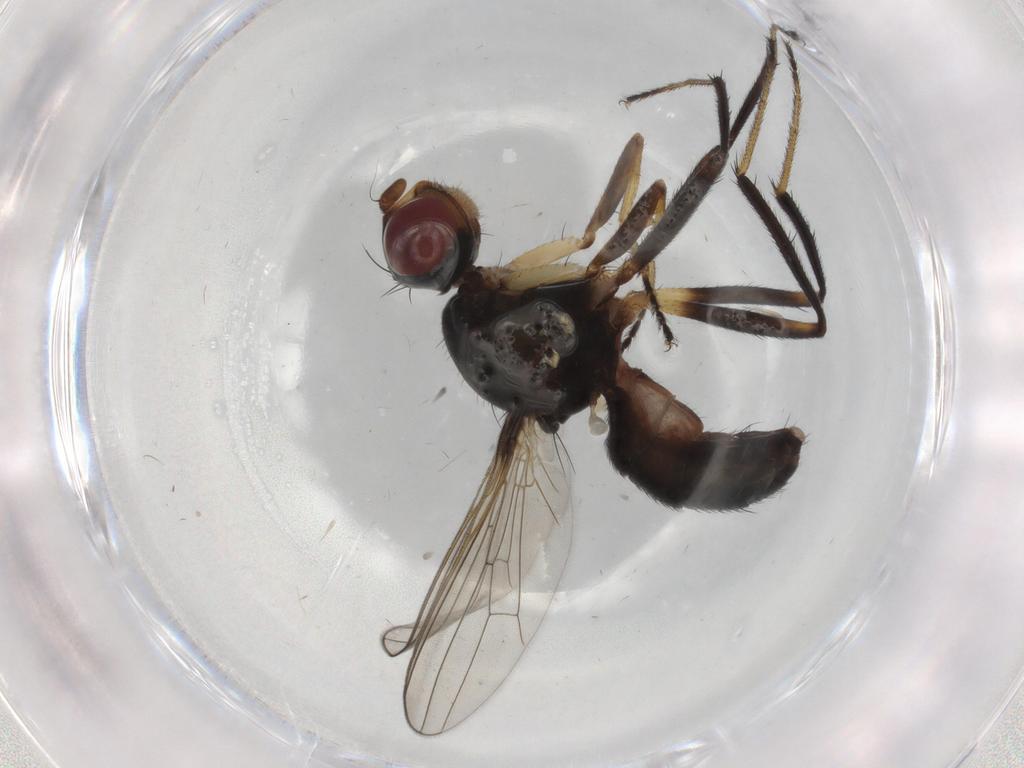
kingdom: Animalia
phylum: Arthropoda
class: Insecta
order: Diptera
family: Sepsidae
